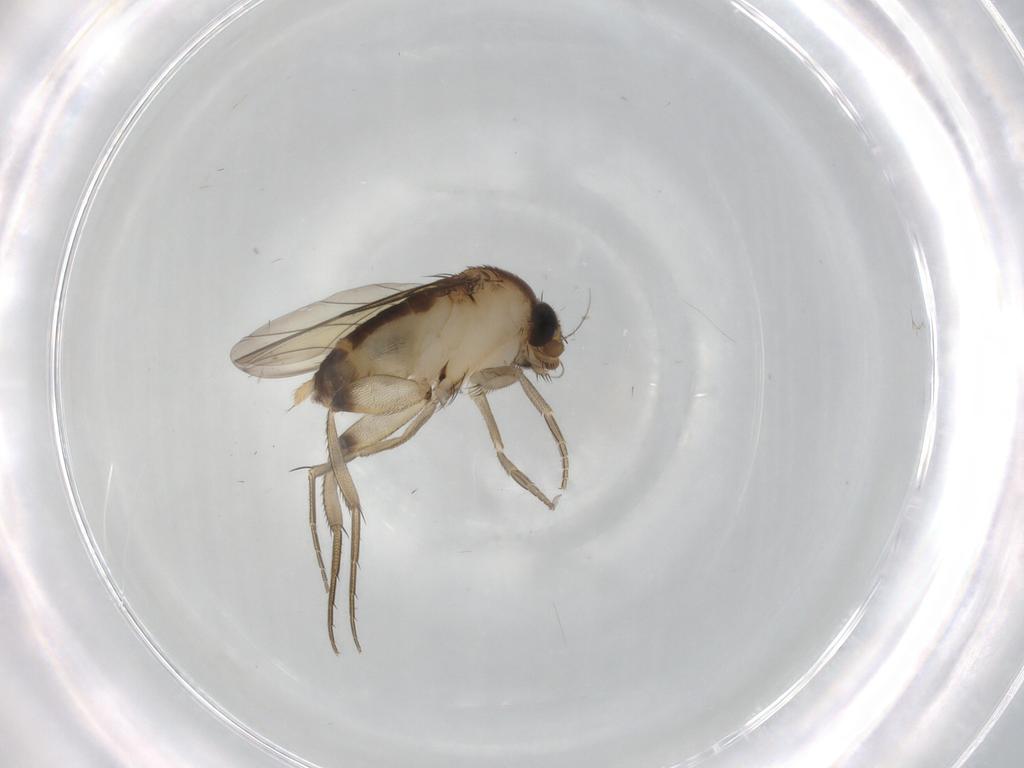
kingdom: Animalia
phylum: Arthropoda
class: Insecta
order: Diptera
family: Phoridae
